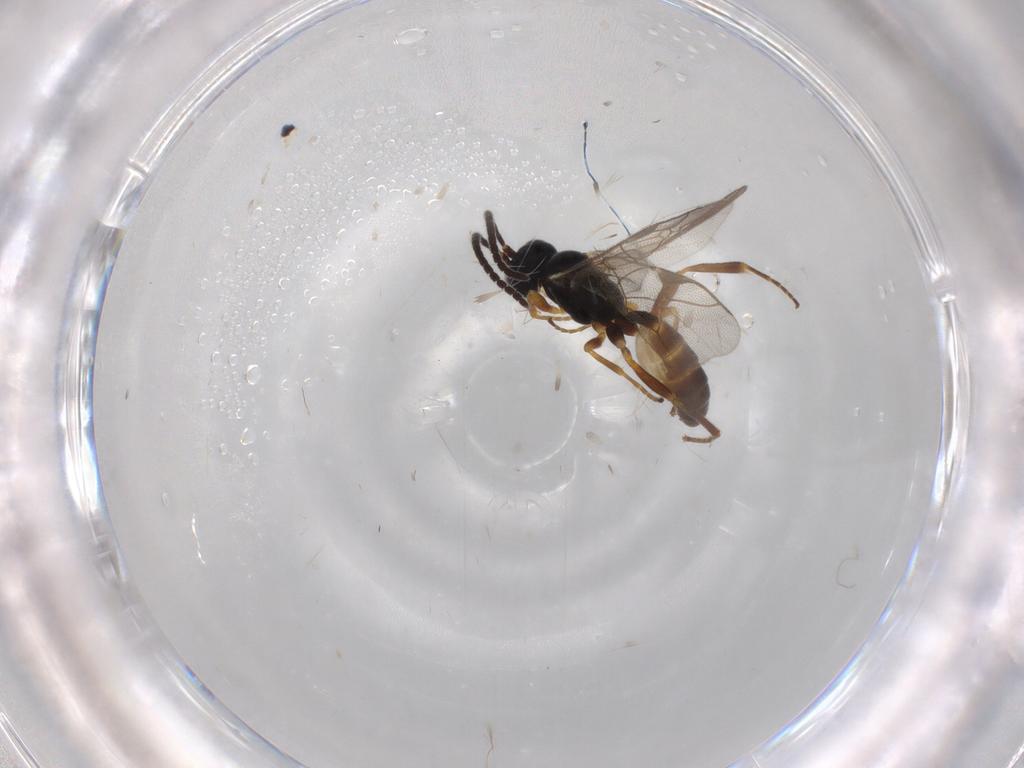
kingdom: Animalia
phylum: Arthropoda
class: Insecta
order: Hymenoptera
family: Ichneumonidae
